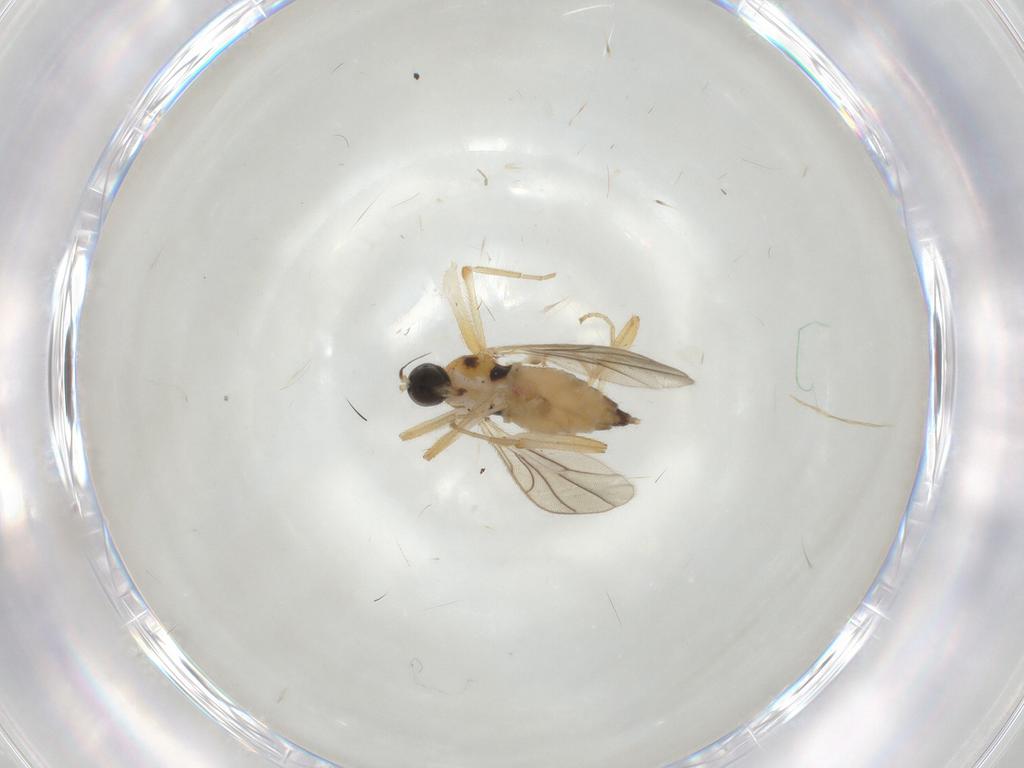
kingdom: Animalia
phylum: Arthropoda
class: Insecta
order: Diptera
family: Hybotidae
